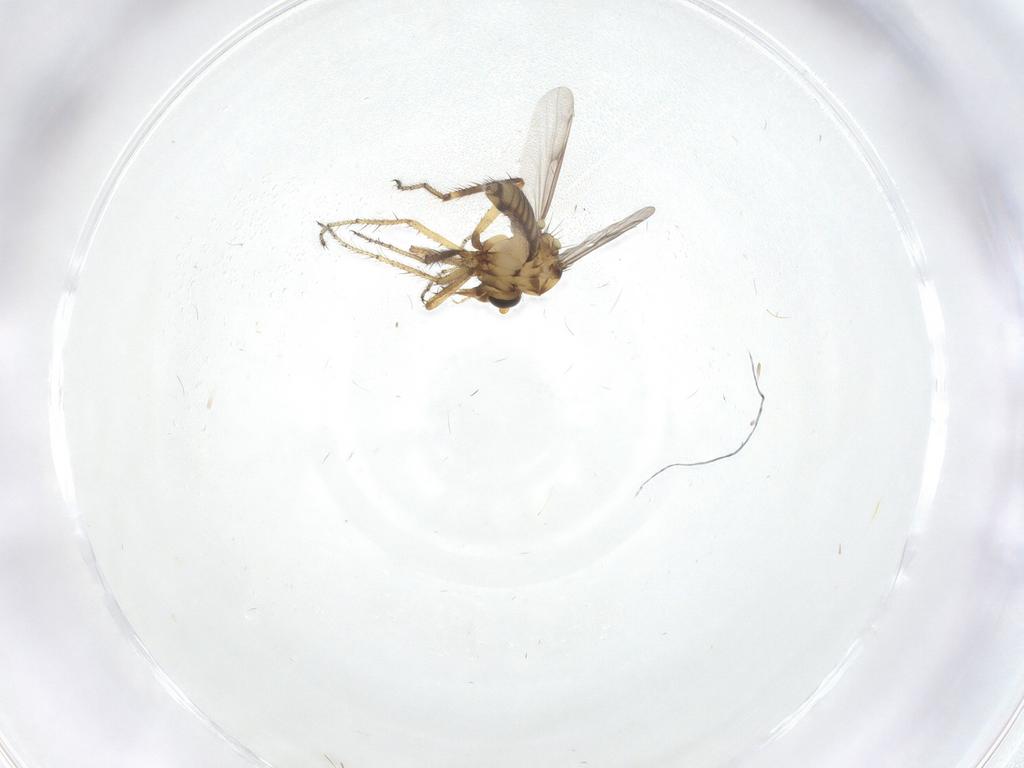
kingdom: Animalia
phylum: Arthropoda
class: Insecta
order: Diptera
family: Ceratopogonidae
